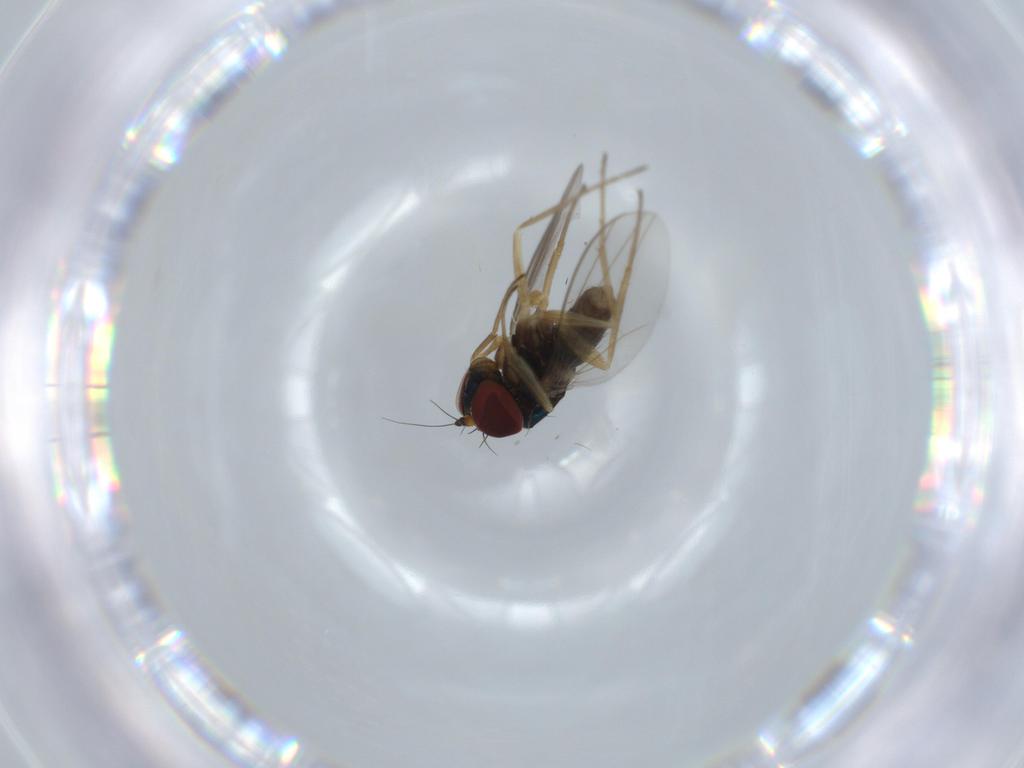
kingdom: Animalia
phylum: Arthropoda
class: Insecta
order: Diptera
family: Dolichopodidae
